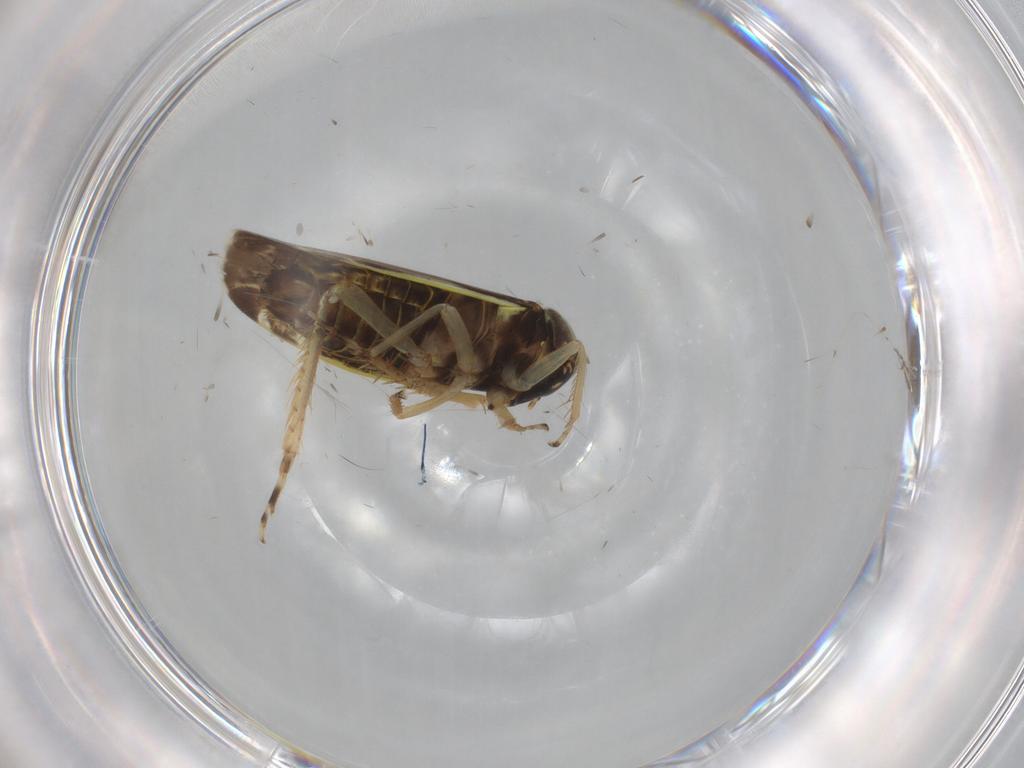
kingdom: Animalia
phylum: Arthropoda
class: Insecta
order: Hemiptera
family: Cicadellidae
